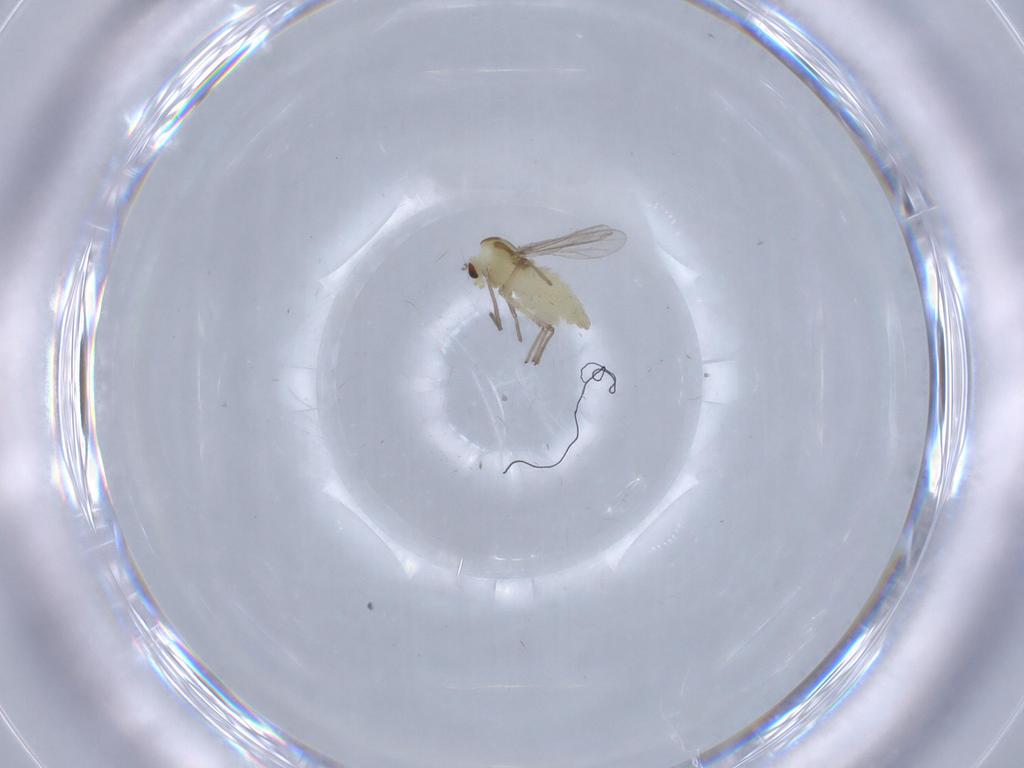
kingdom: Animalia
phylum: Arthropoda
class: Insecta
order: Diptera
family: Chironomidae
